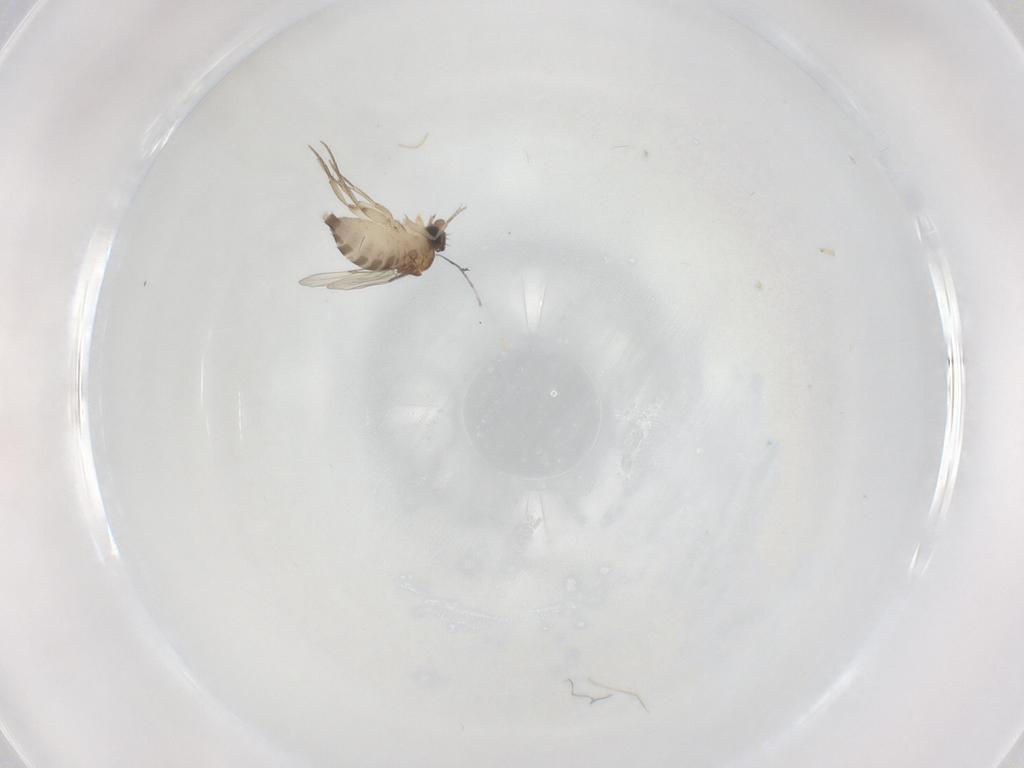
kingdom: Animalia
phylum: Arthropoda
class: Insecta
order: Diptera
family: Phoridae
